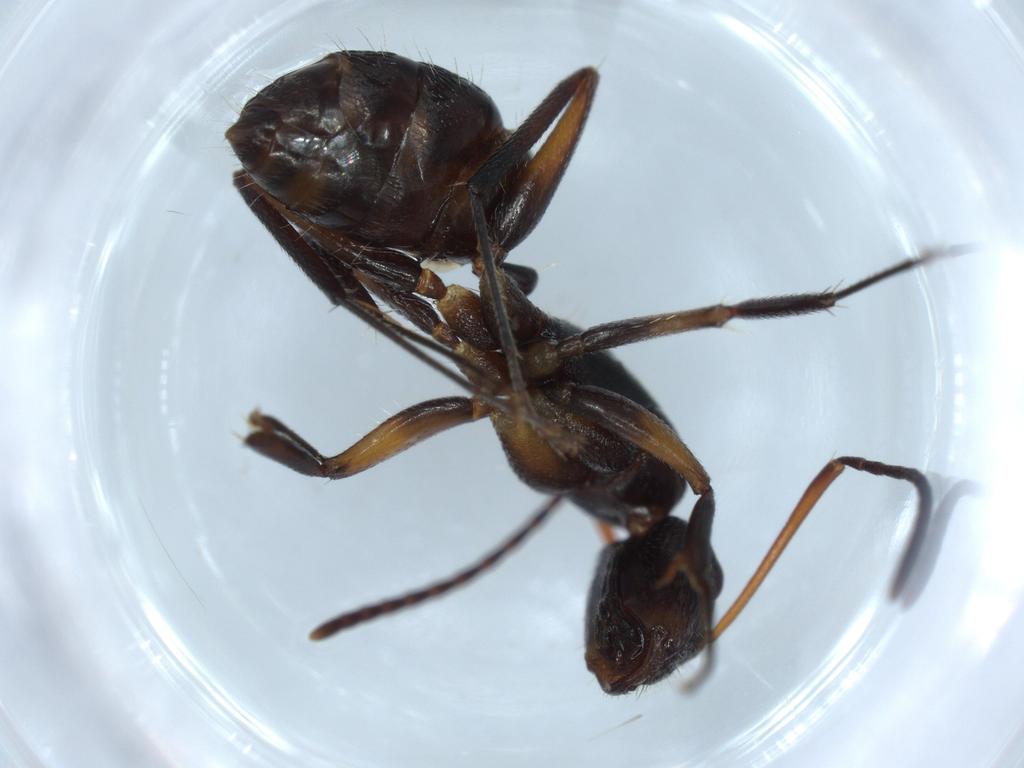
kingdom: Animalia
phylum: Arthropoda
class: Insecta
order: Hymenoptera
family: Formicidae
